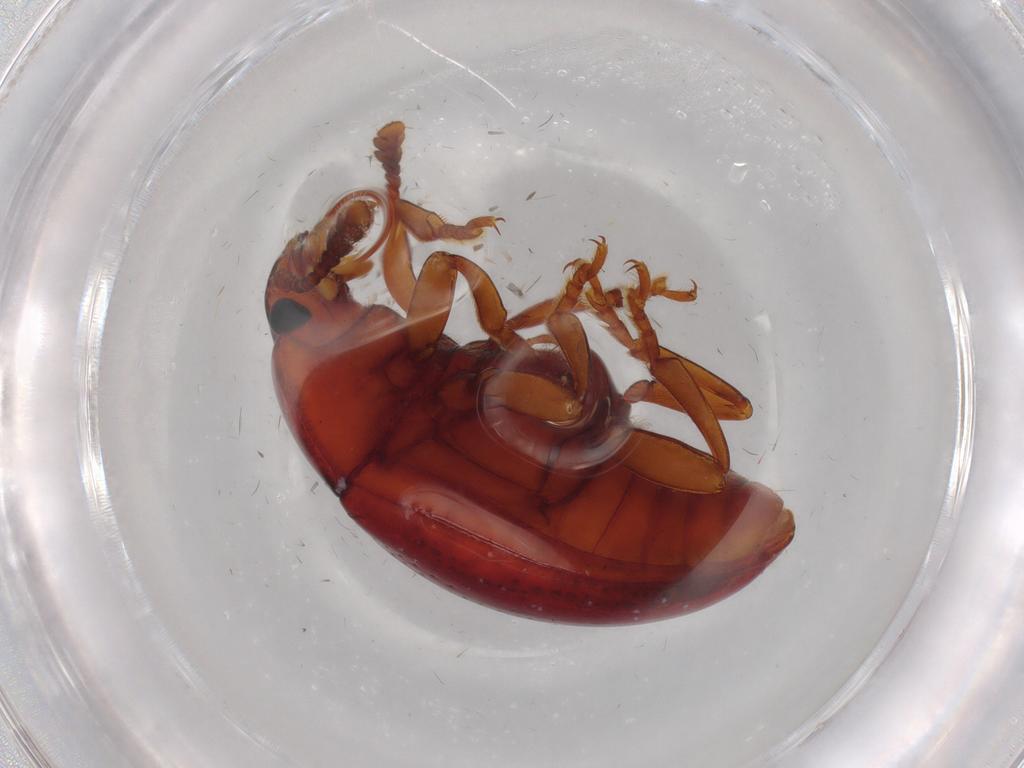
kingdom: Animalia
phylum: Arthropoda
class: Insecta
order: Coleoptera
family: Erotylidae
